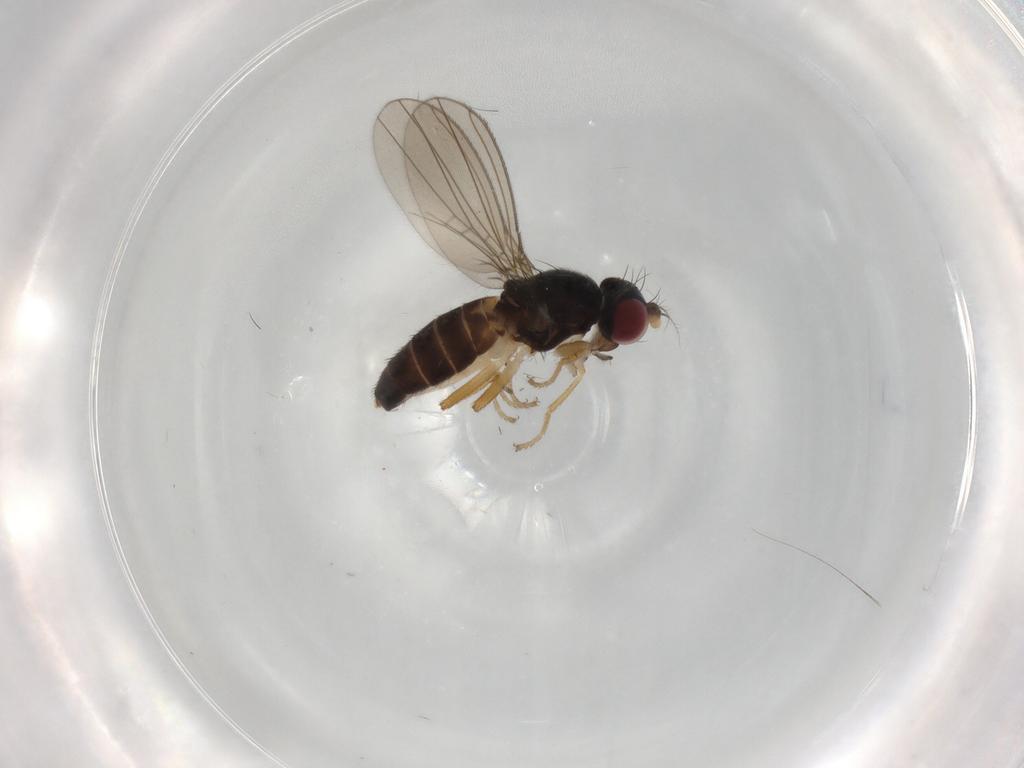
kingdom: Animalia
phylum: Arthropoda
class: Insecta
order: Diptera
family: Anthomyzidae
